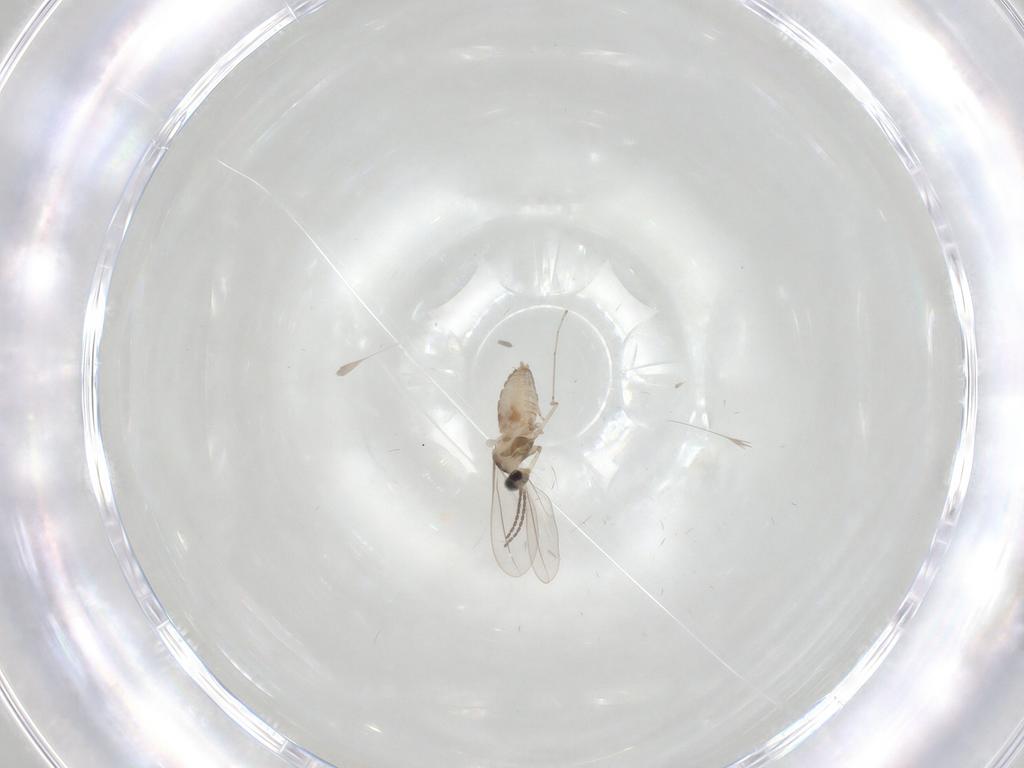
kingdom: Animalia
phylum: Arthropoda
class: Insecta
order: Diptera
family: Cecidomyiidae
